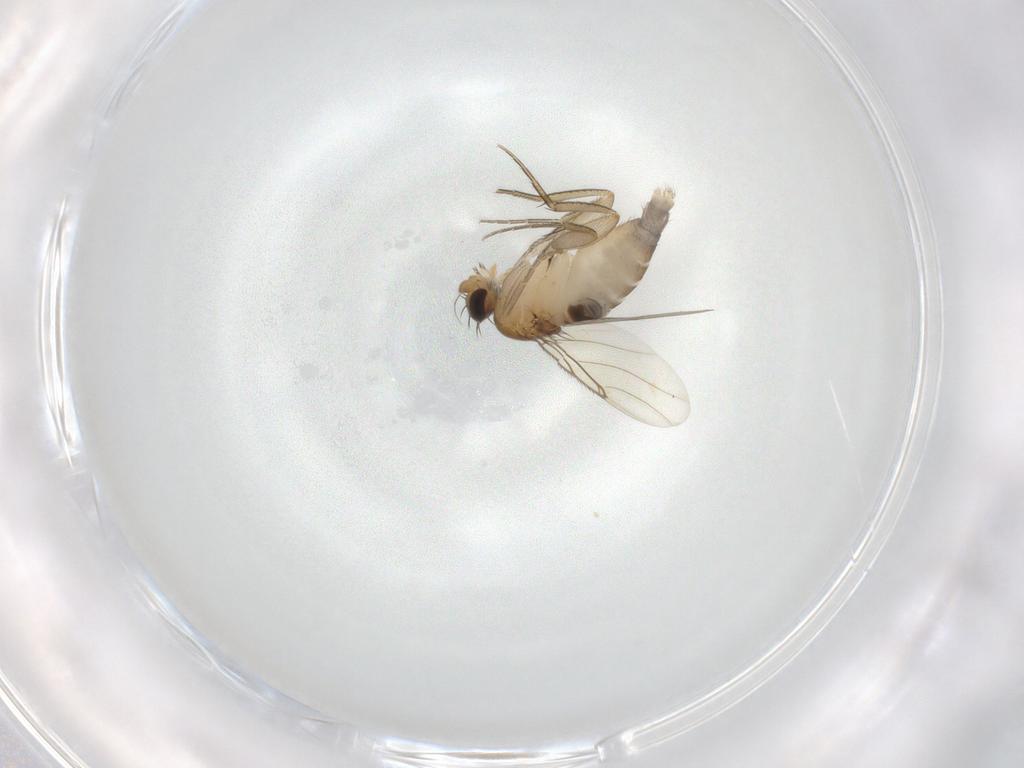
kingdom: Animalia
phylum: Arthropoda
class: Insecta
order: Diptera
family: Phoridae
